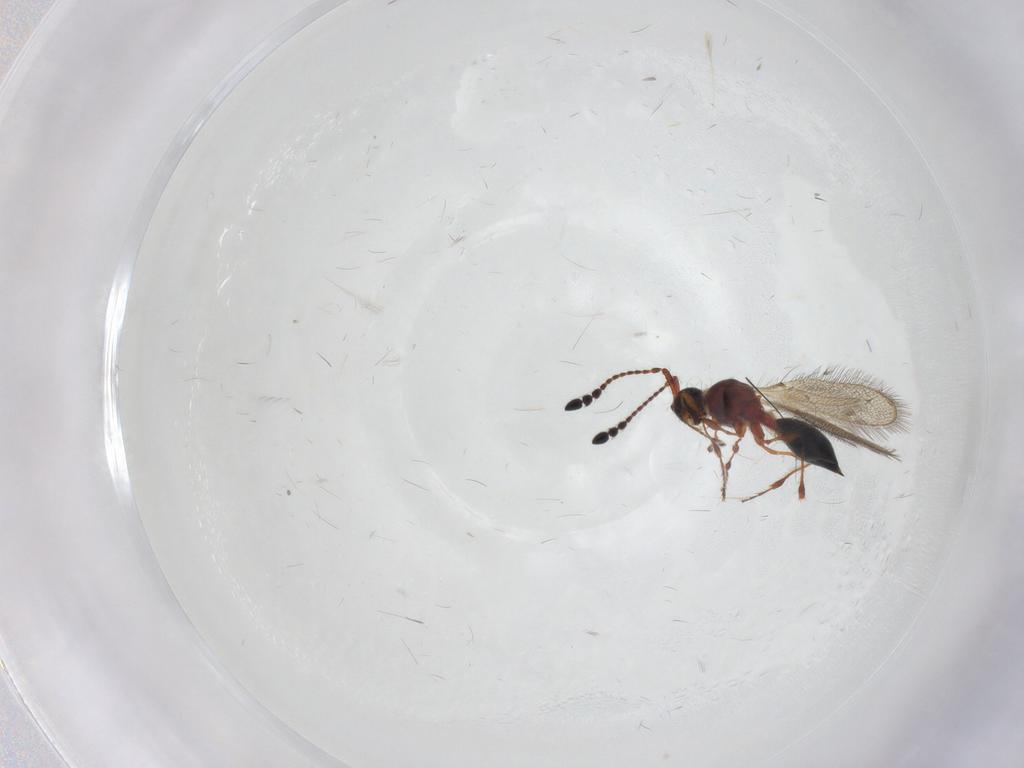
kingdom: Animalia
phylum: Arthropoda
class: Insecta
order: Hymenoptera
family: Diapriidae
